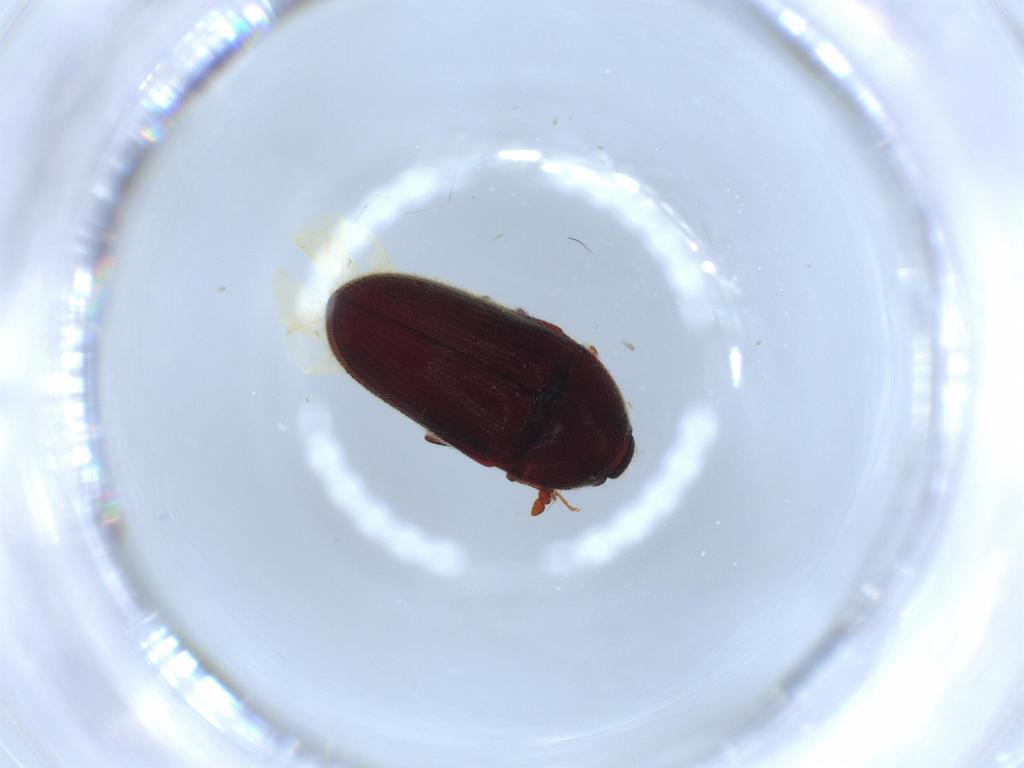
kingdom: Animalia
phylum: Arthropoda
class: Insecta
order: Coleoptera
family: Throscidae
